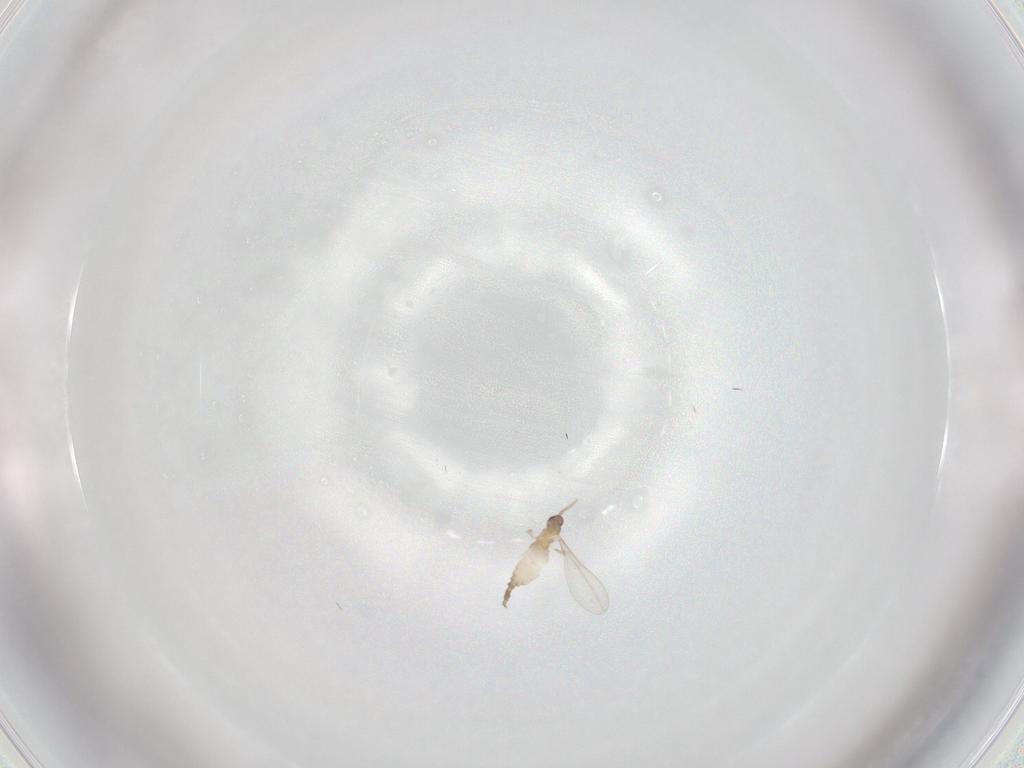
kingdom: Animalia
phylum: Arthropoda
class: Insecta
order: Diptera
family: Cecidomyiidae
